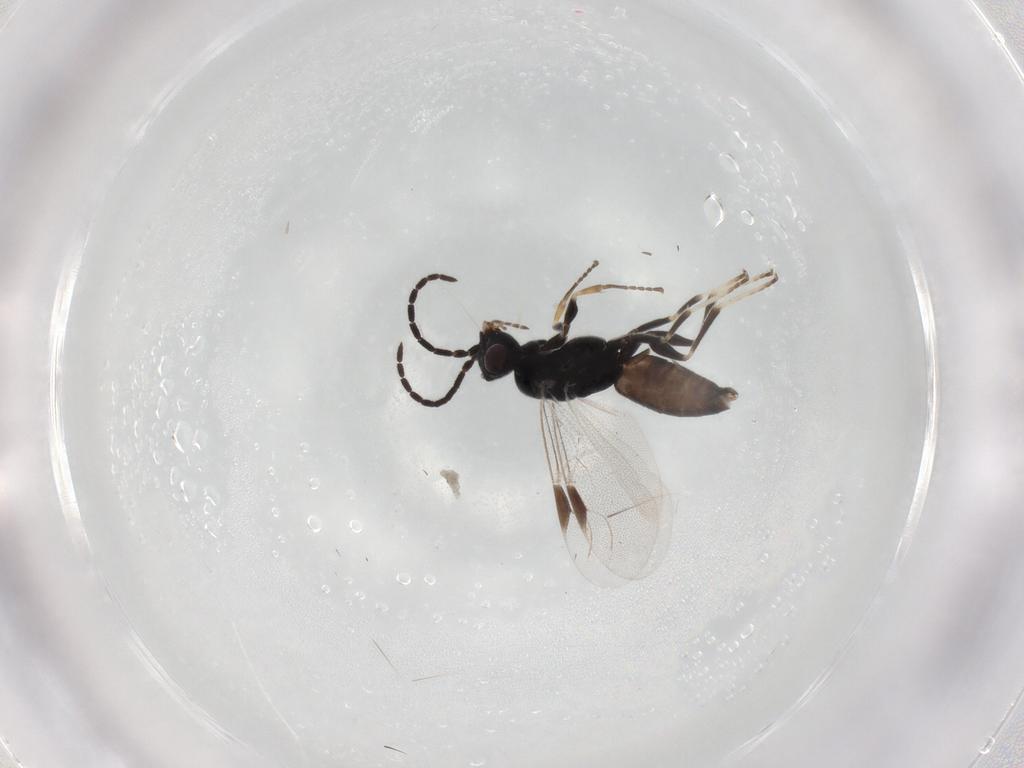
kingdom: Animalia
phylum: Arthropoda
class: Insecta
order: Hymenoptera
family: Dryinidae
